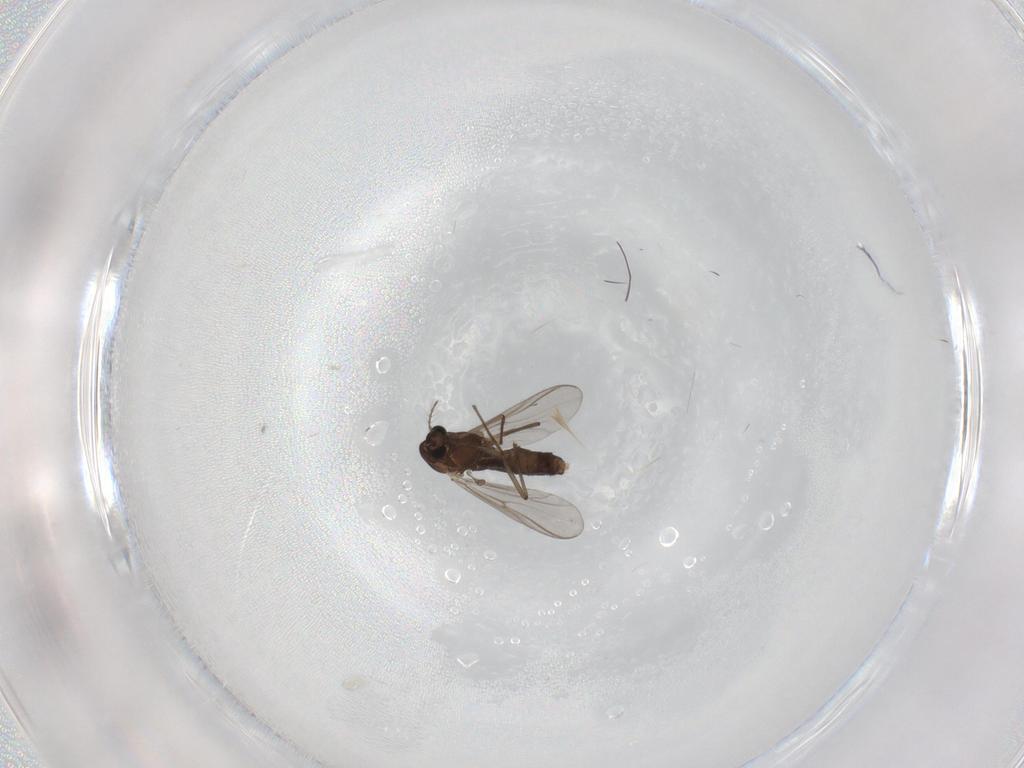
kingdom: Animalia
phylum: Arthropoda
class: Insecta
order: Diptera
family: Chironomidae
